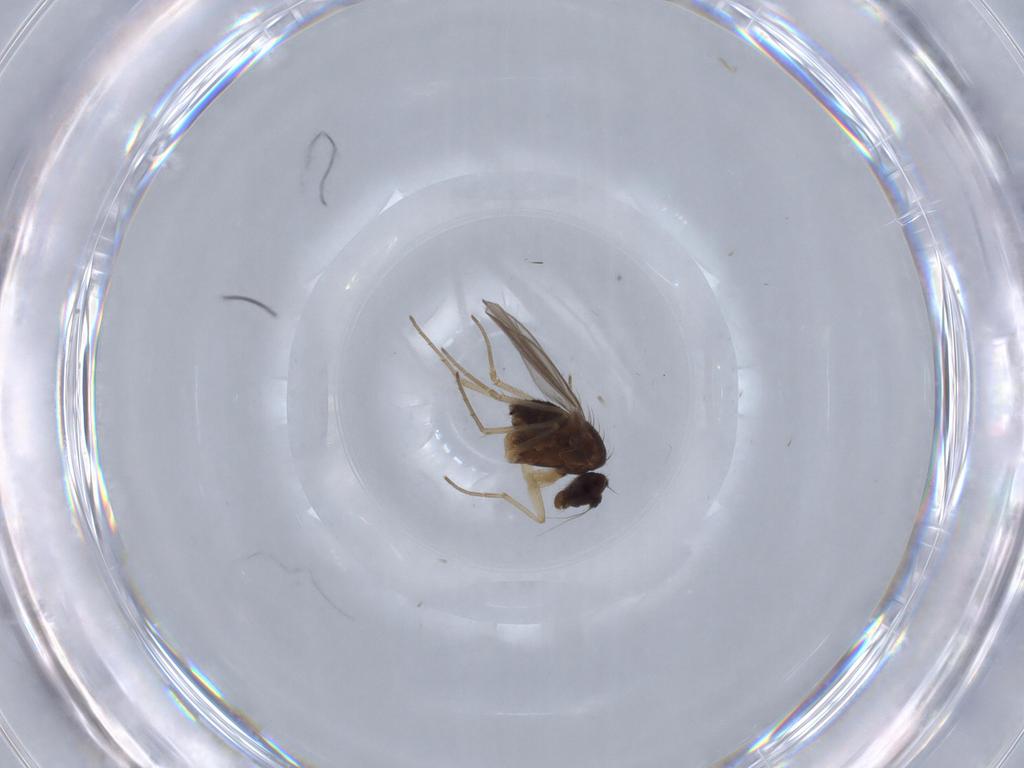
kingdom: Animalia
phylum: Arthropoda
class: Insecta
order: Diptera
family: Phoridae
